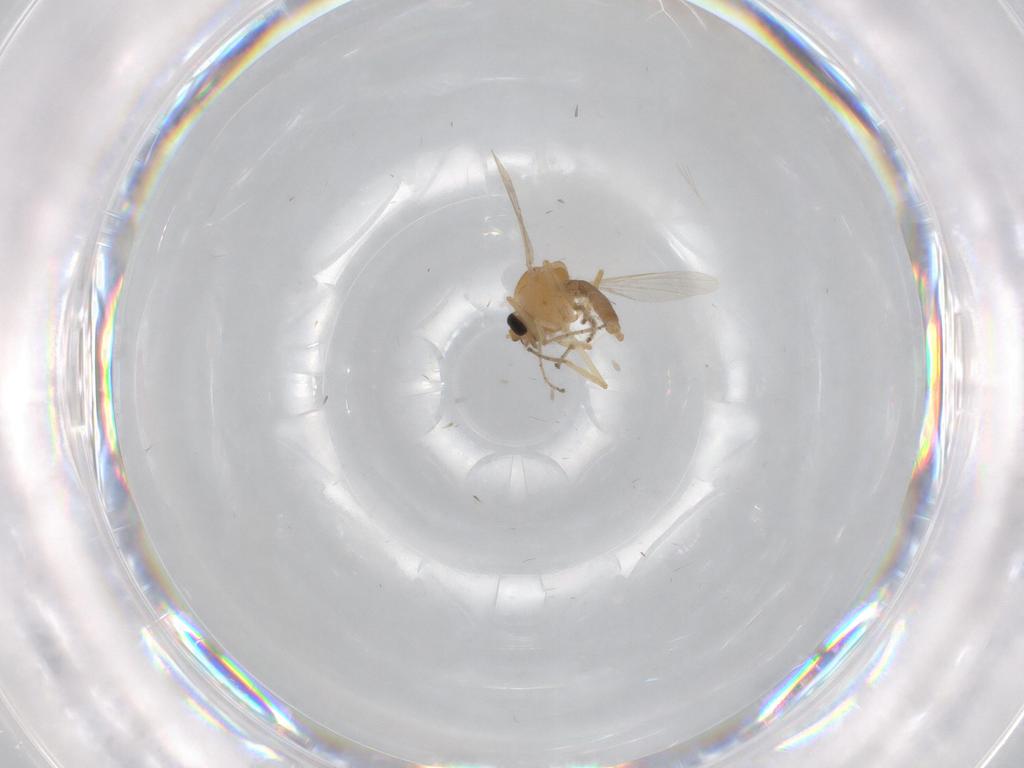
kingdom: Animalia
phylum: Arthropoda
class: Insecta
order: Diptera
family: Ceratopogonidae
